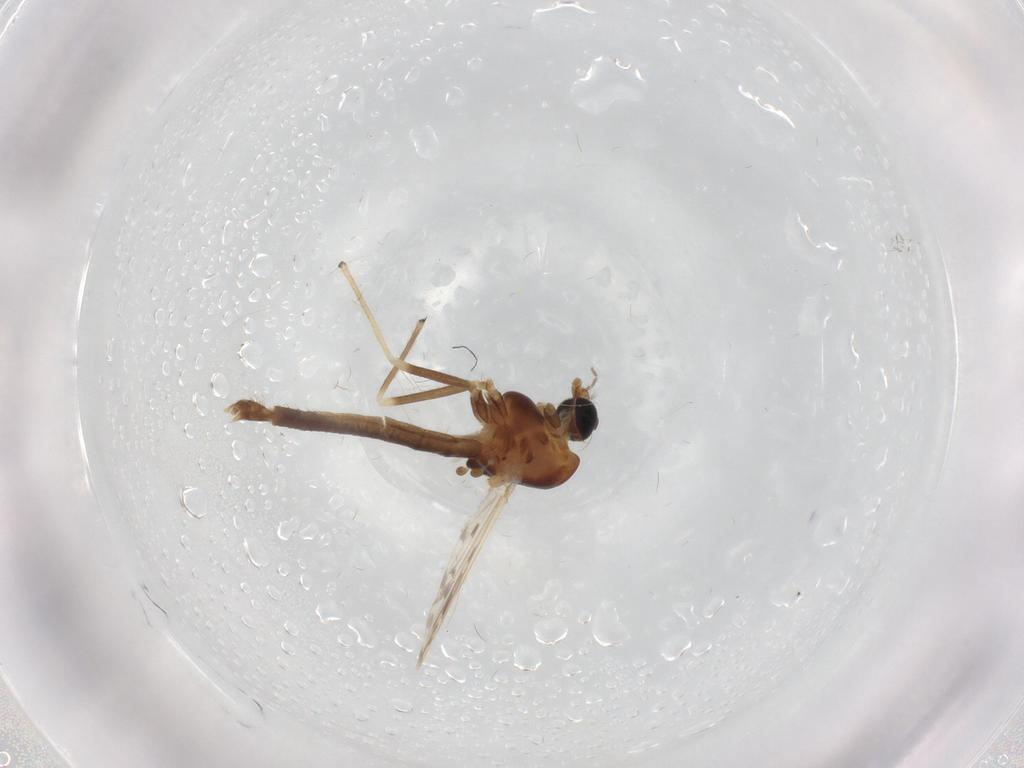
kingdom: Animalia
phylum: Arthropoda
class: Insecta
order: Diptera
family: Chironomidae
